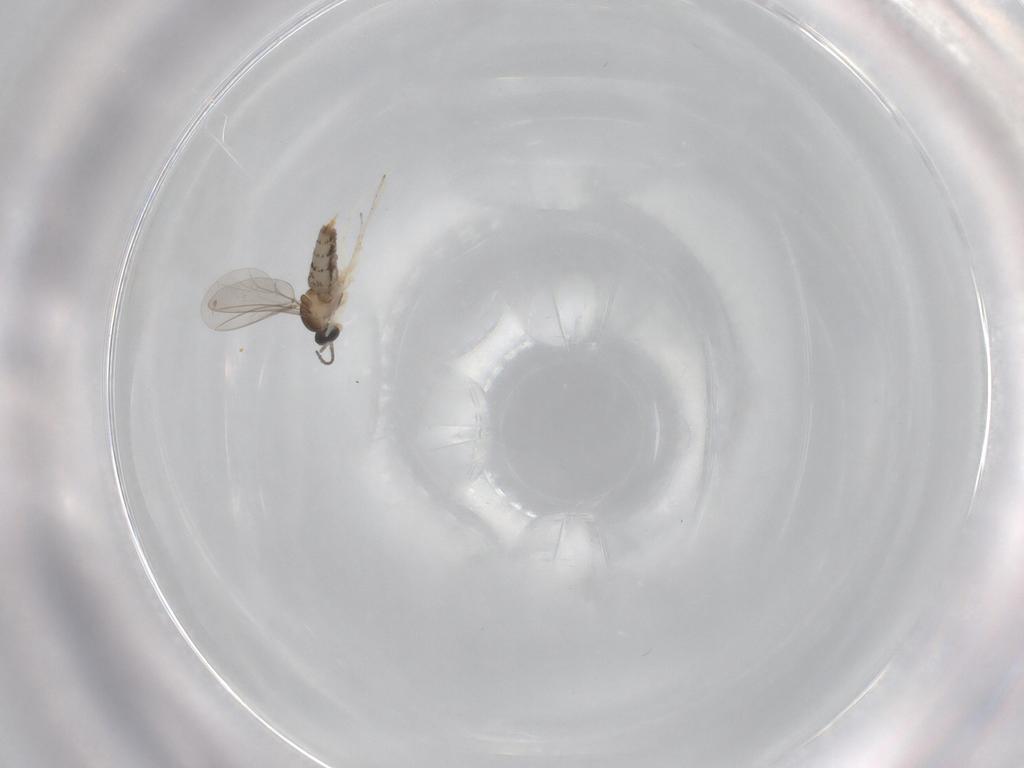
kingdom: Animalia
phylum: Arthropoda
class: Insecta
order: Diptera
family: Cecidomyiidae
